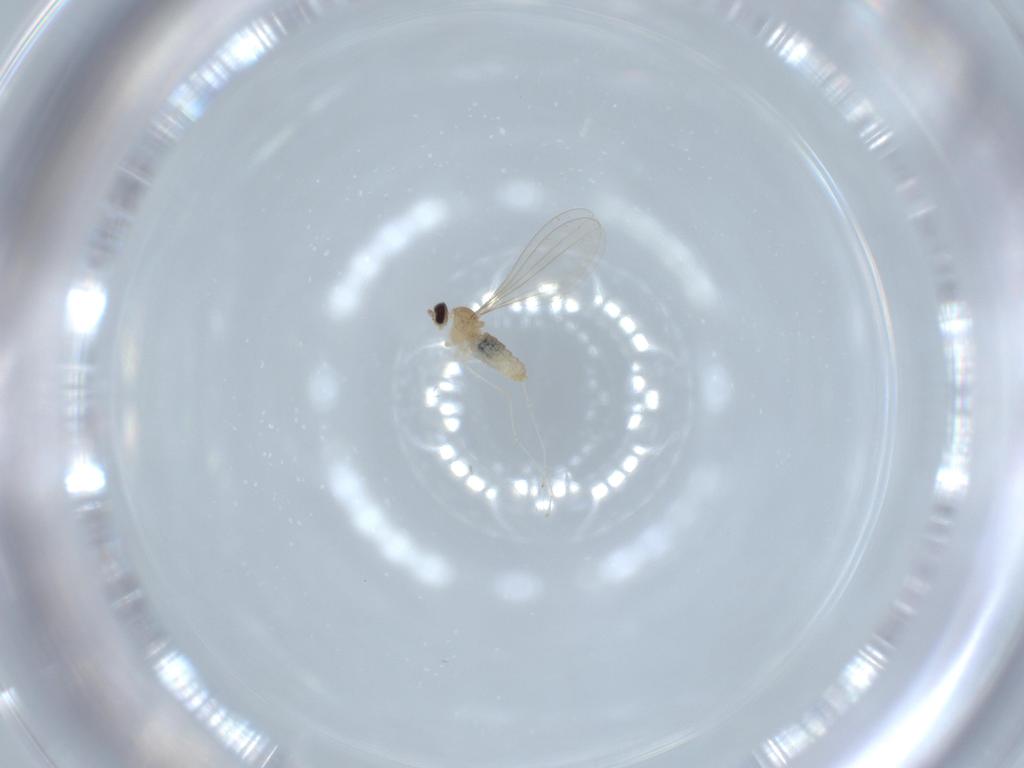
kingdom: Animalia
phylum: Arthropoda
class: Insecta
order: Diptera
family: Cecidomyiidae
